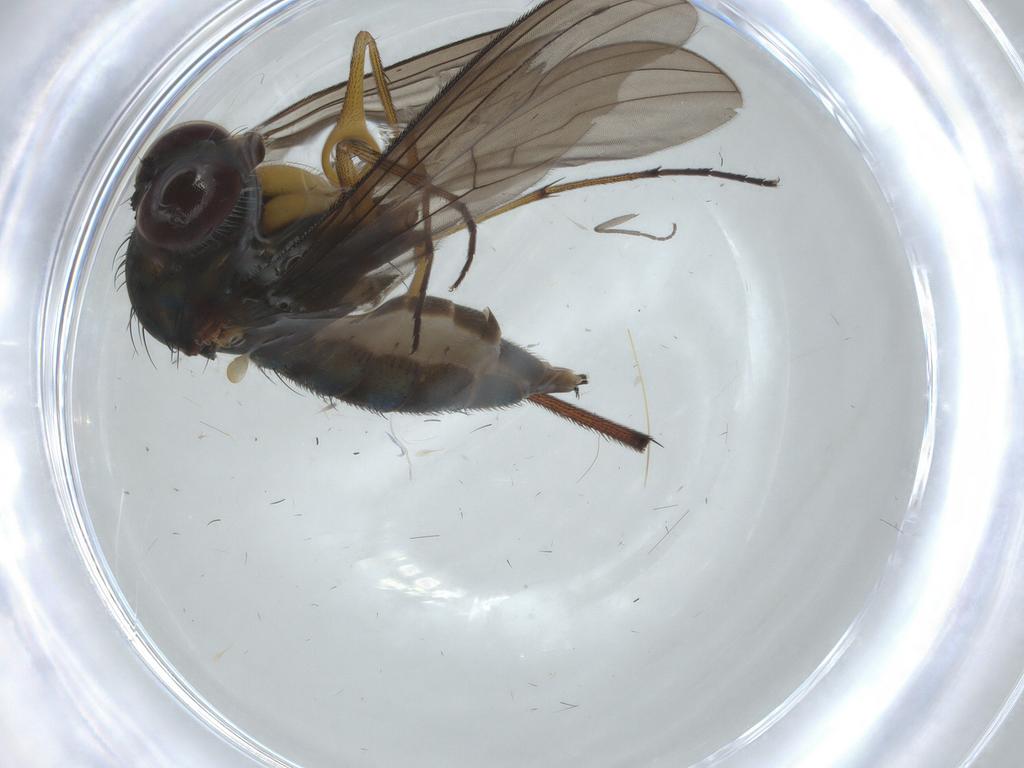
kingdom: Animalia
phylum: Arthropoda
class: Insecta
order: Diptera
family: Dolichopodidae
